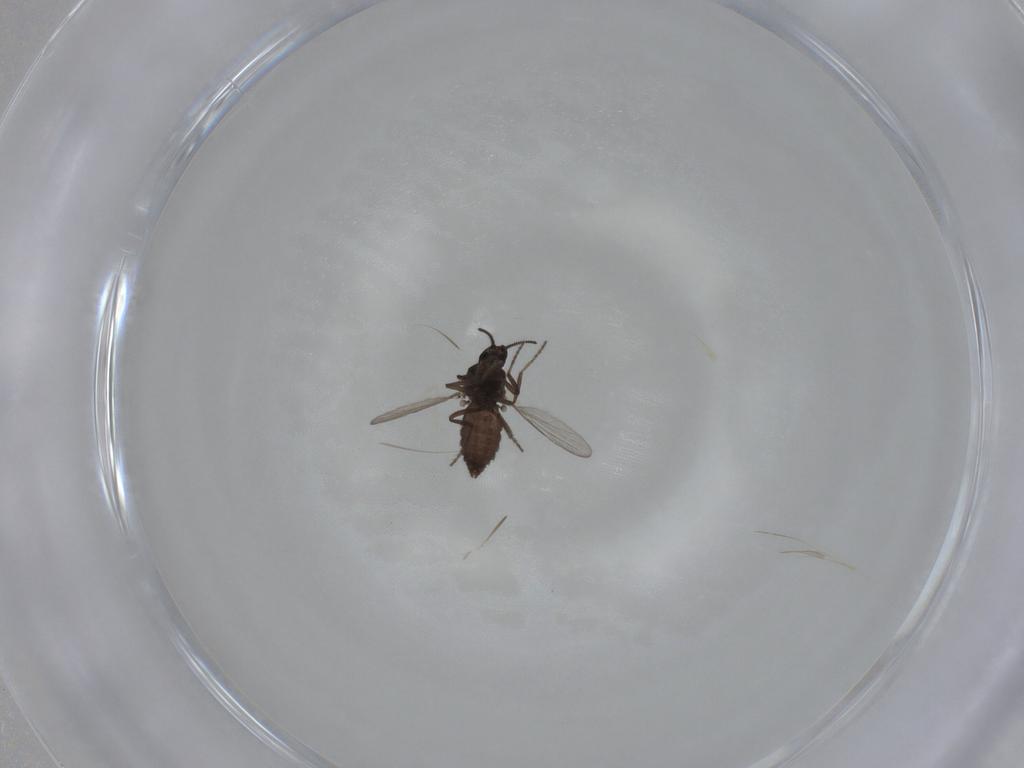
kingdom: Animalia
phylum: Arthropoda
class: Insecta
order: Diptera
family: Ceratopogonidae
